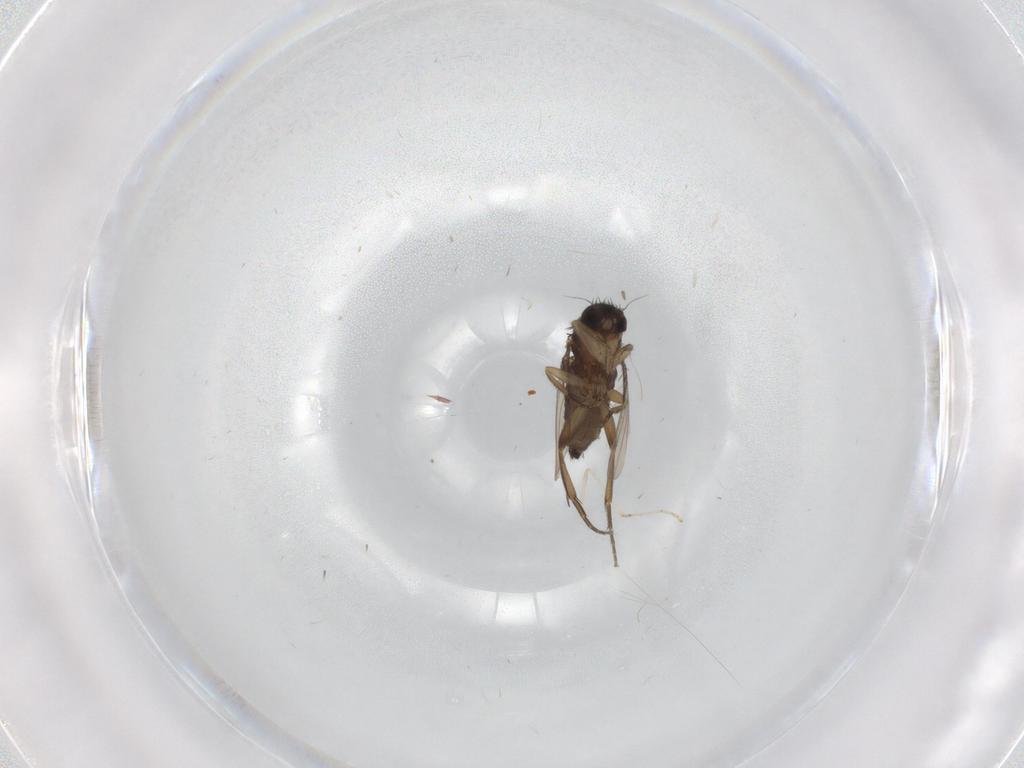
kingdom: Animalia
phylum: Arthropoda
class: Insecta
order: Diptera
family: Phoridae
